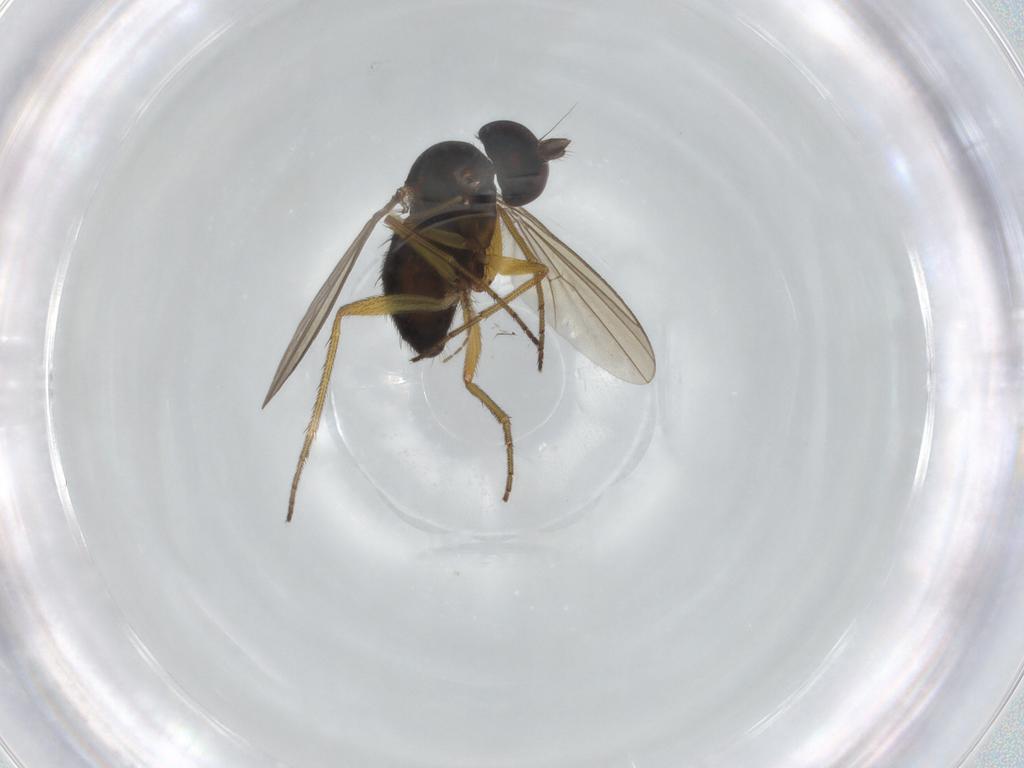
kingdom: Animalia
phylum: Arthropoda
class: Insecta
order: Diptera
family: Dolichopodidae
